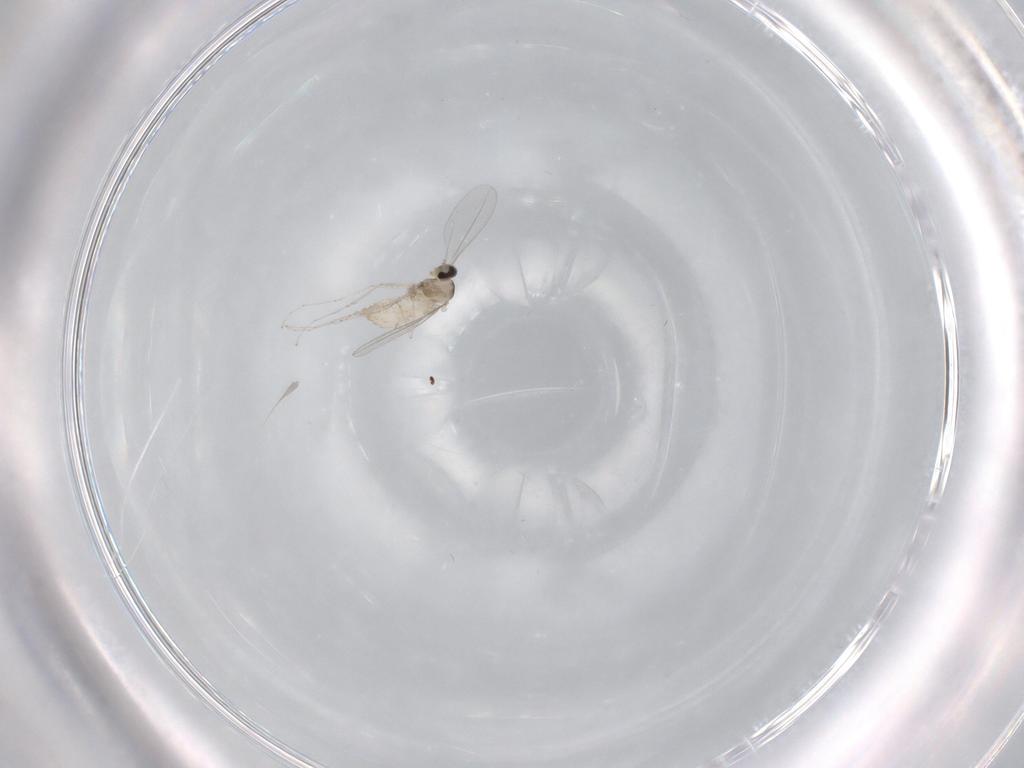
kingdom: Animalia
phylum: Arthropoda
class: Insecta
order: Diptera
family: Cecidomyiidae
